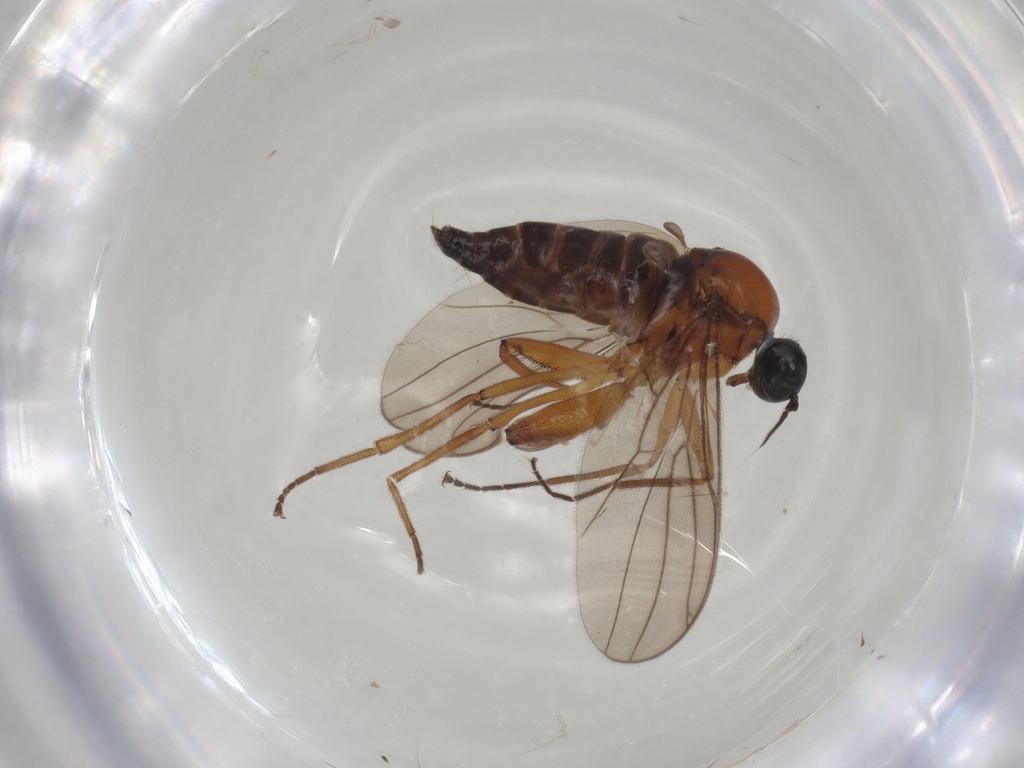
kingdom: Animalia
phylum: Arthropoda
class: Insecta
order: Diptera
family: Hybotidae
